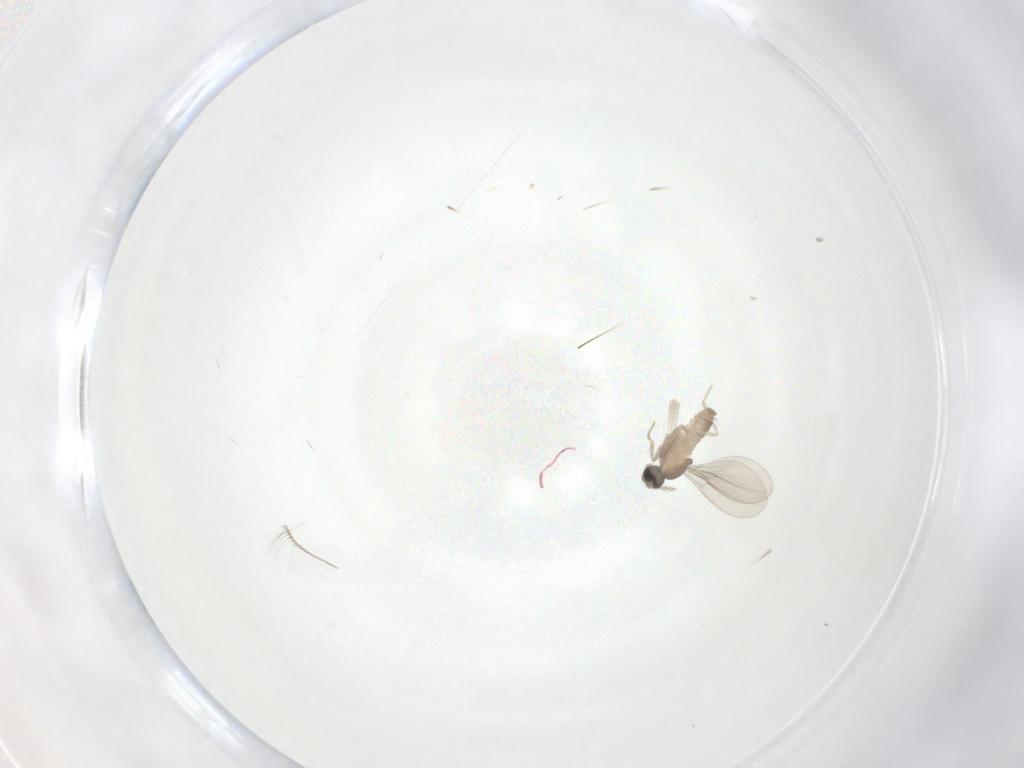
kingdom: Animalia
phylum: Arthropoda
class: Insecta
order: Diptera
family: Cecidomyiidae
